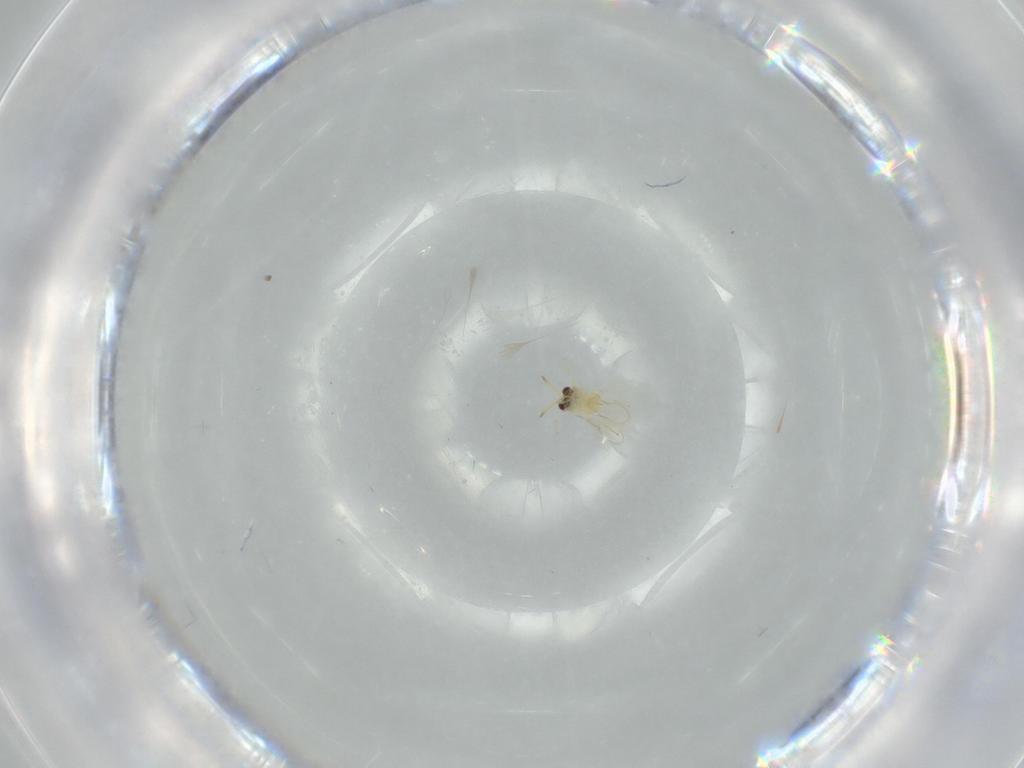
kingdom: Animalia
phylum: Arthropoda
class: Insecta
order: Hymenoptera
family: Aphelinidae
